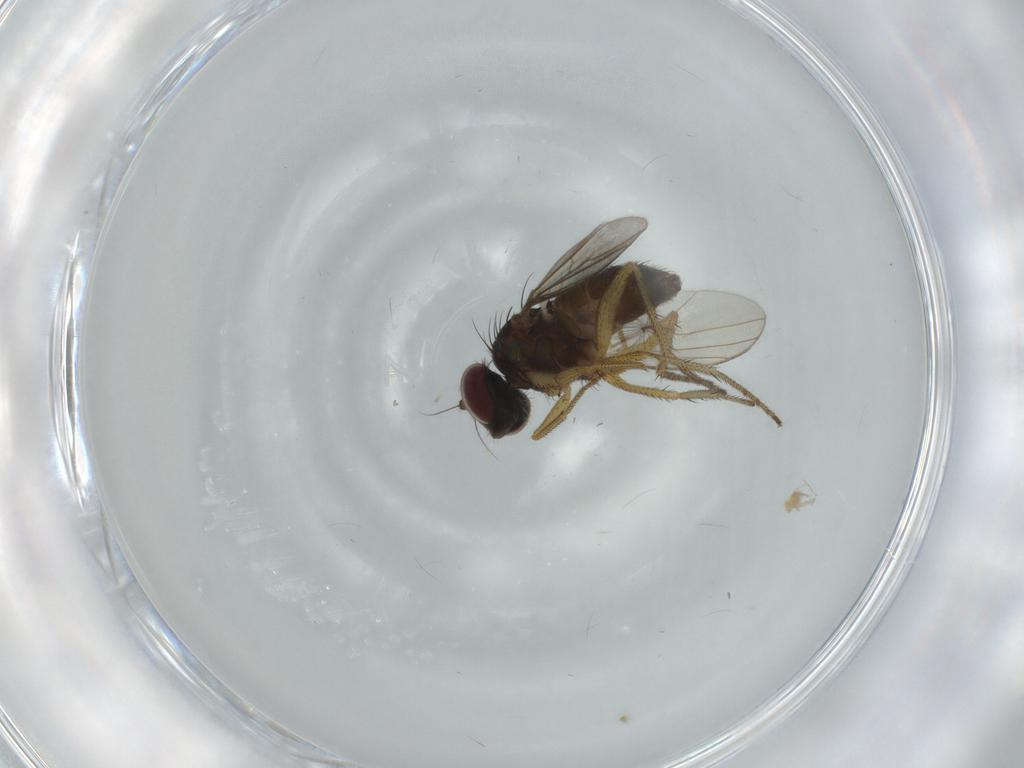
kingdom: Animalia
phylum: Arthropoda
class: Insecta
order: Diptera
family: Dolichopodidae
